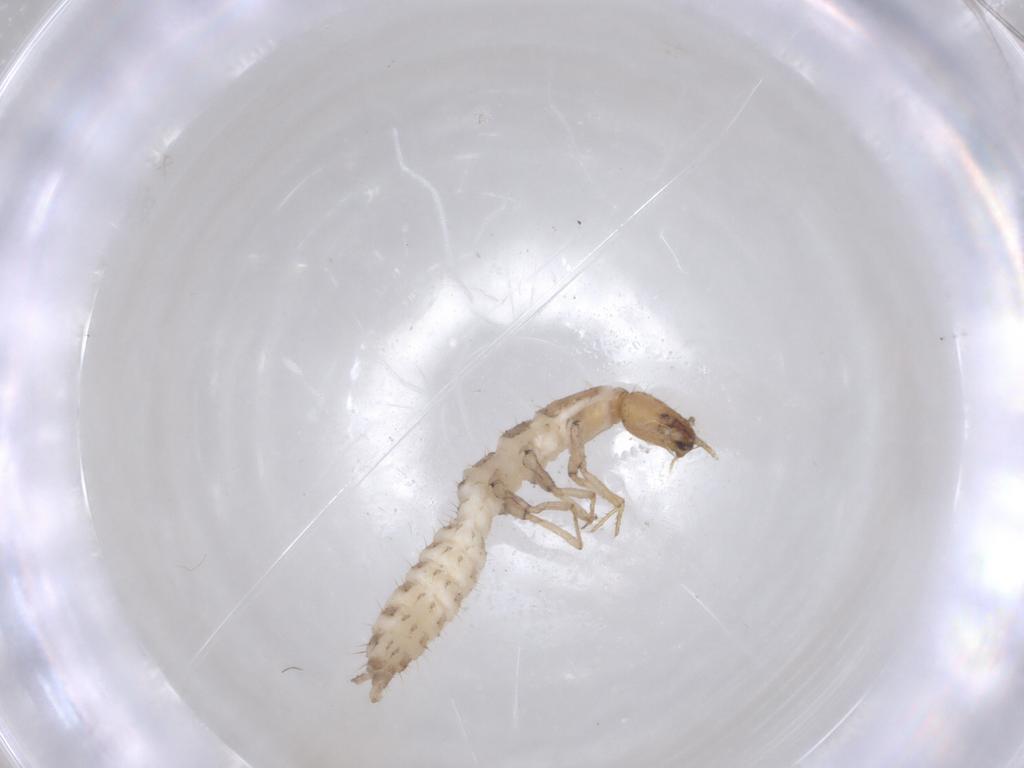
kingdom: Animalia
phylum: Arthropoda
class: Insecta
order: Coleoptera
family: Staphylinidae
